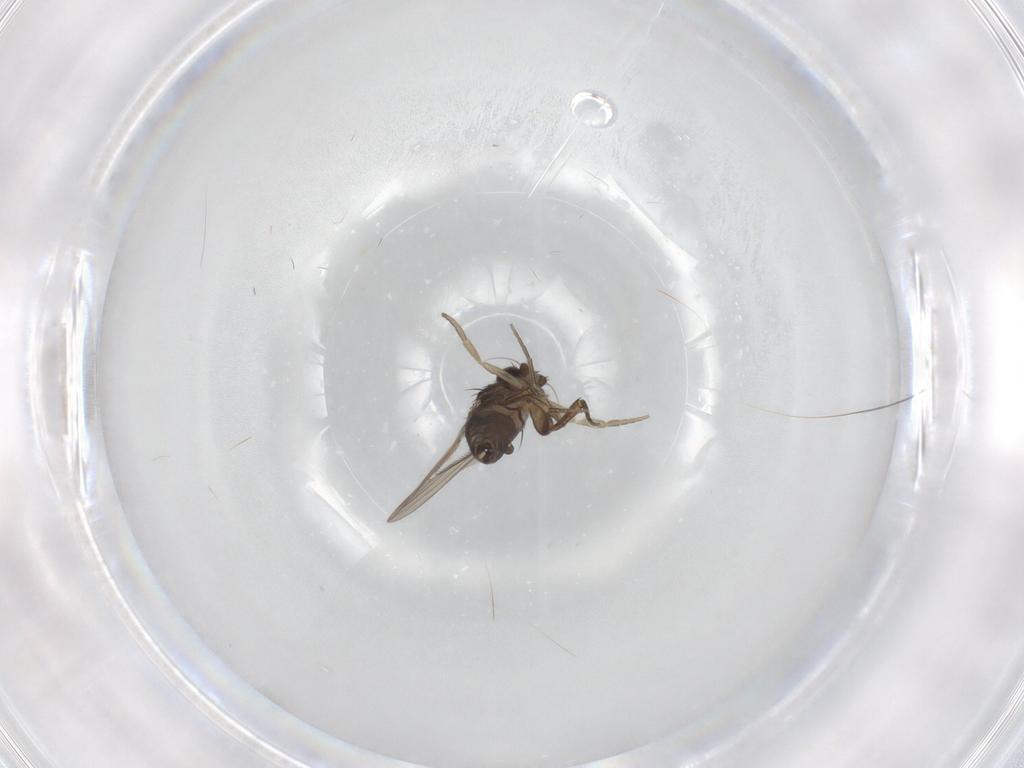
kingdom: Animalia
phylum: Arthropoda
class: Insecta
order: Diptera
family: Phoridae
